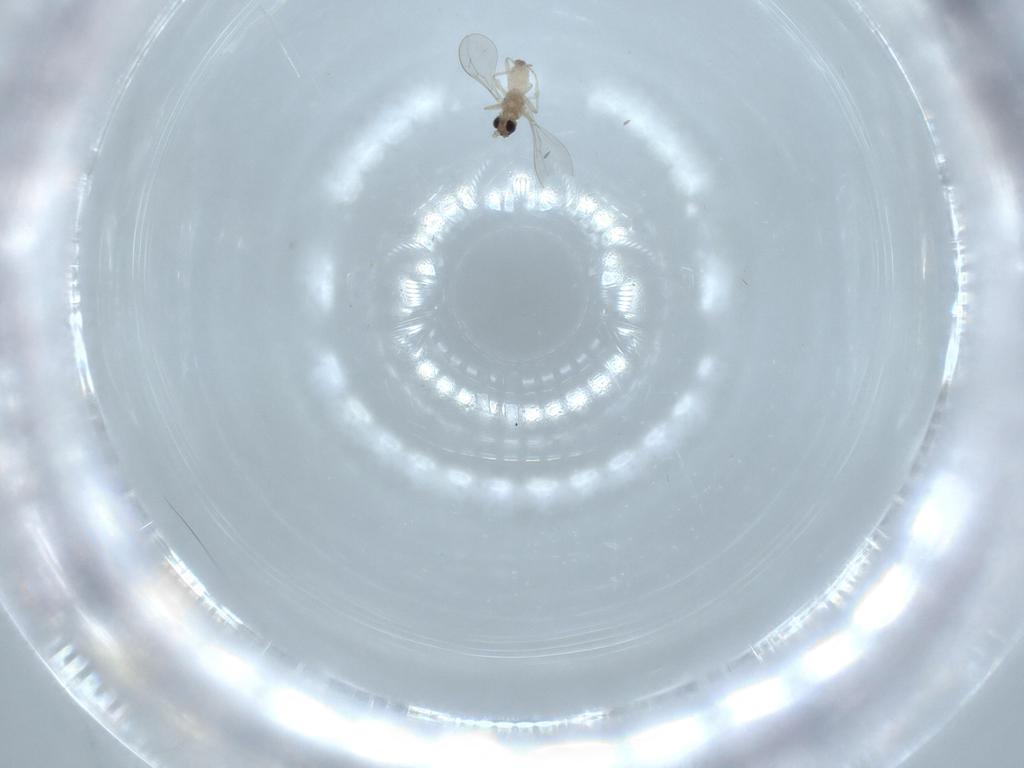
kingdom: Animalia
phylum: Arthropoda
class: Insecta
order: Diptera
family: Cecidomyiidae
